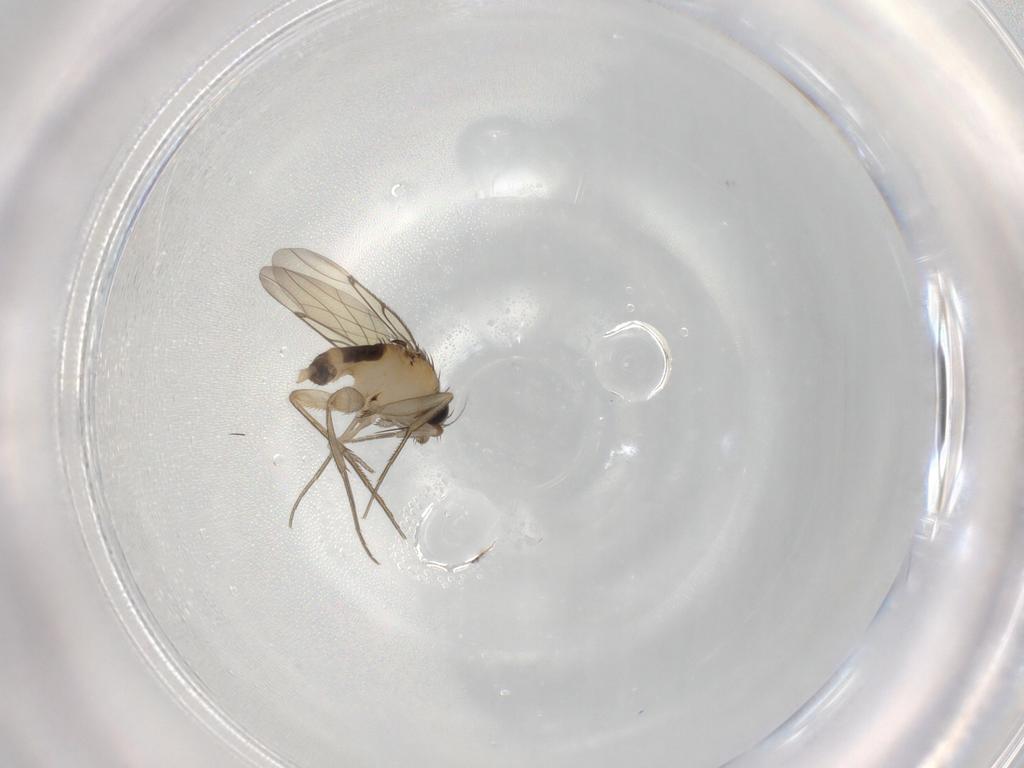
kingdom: Animalia
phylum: Arthropoda
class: Insecta
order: Diptera
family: Phoridae
